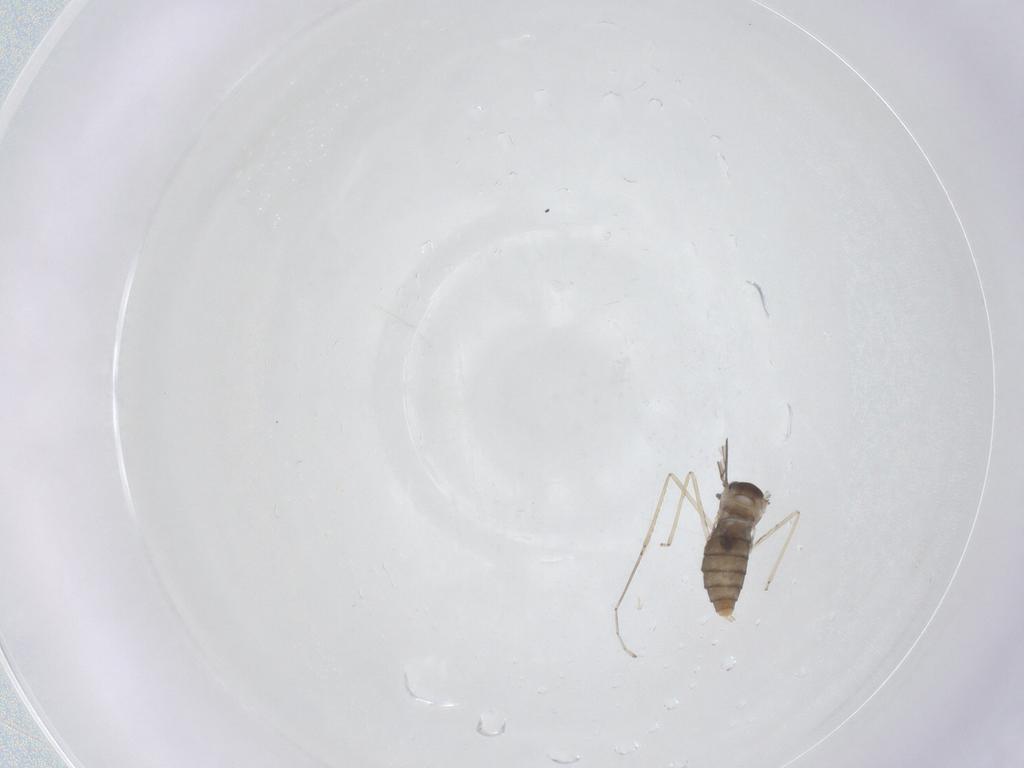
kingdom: Animalia
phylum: Arthropoda
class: Insecta
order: Diptera
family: Cecidomyiidae
